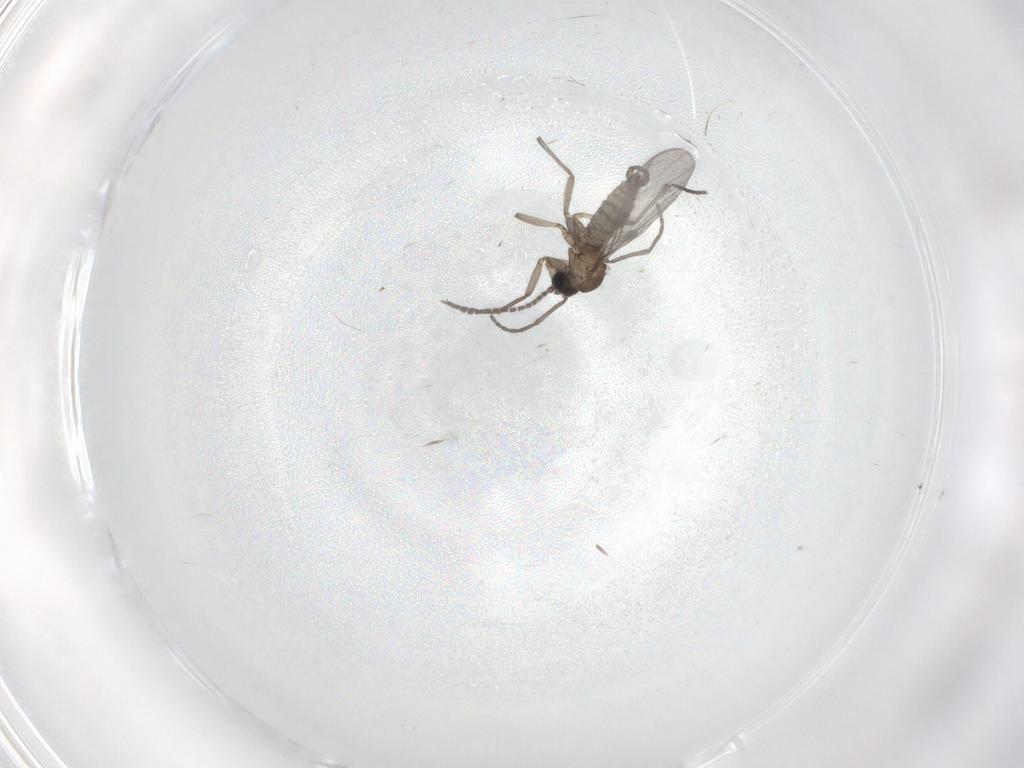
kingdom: Animalia
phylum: Arthropoda
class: Insecta
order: Diptera
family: Sciaridae
